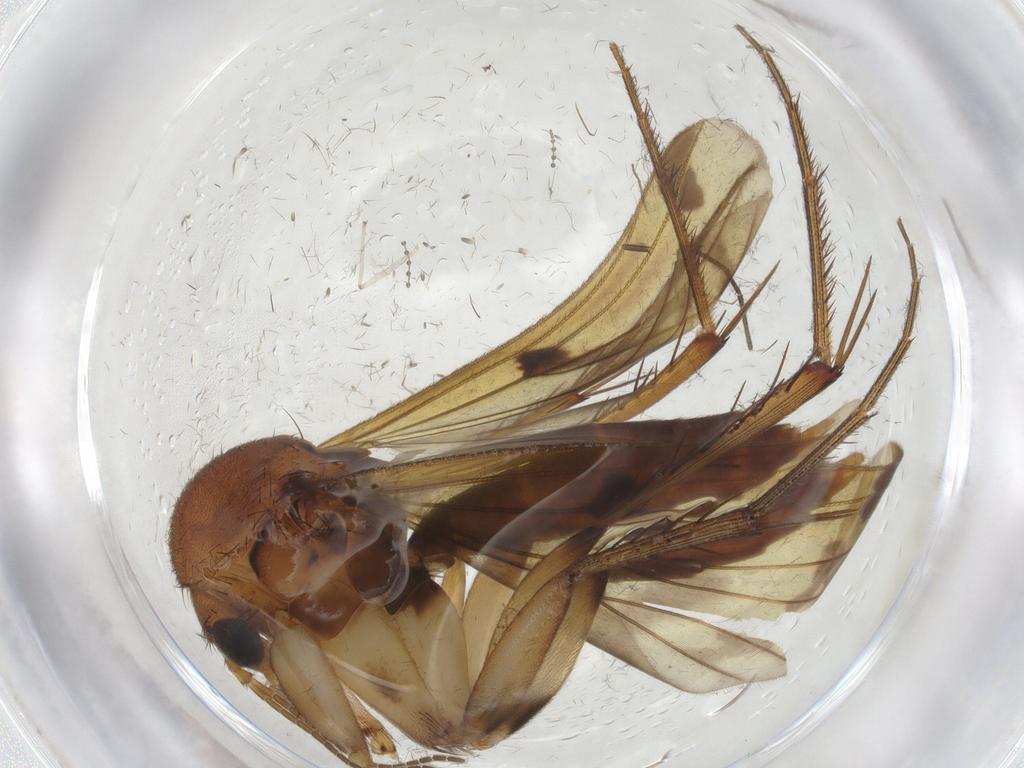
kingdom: Animalia
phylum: Arthropoda
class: Insecta
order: Diptera
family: Mycetophilidae
